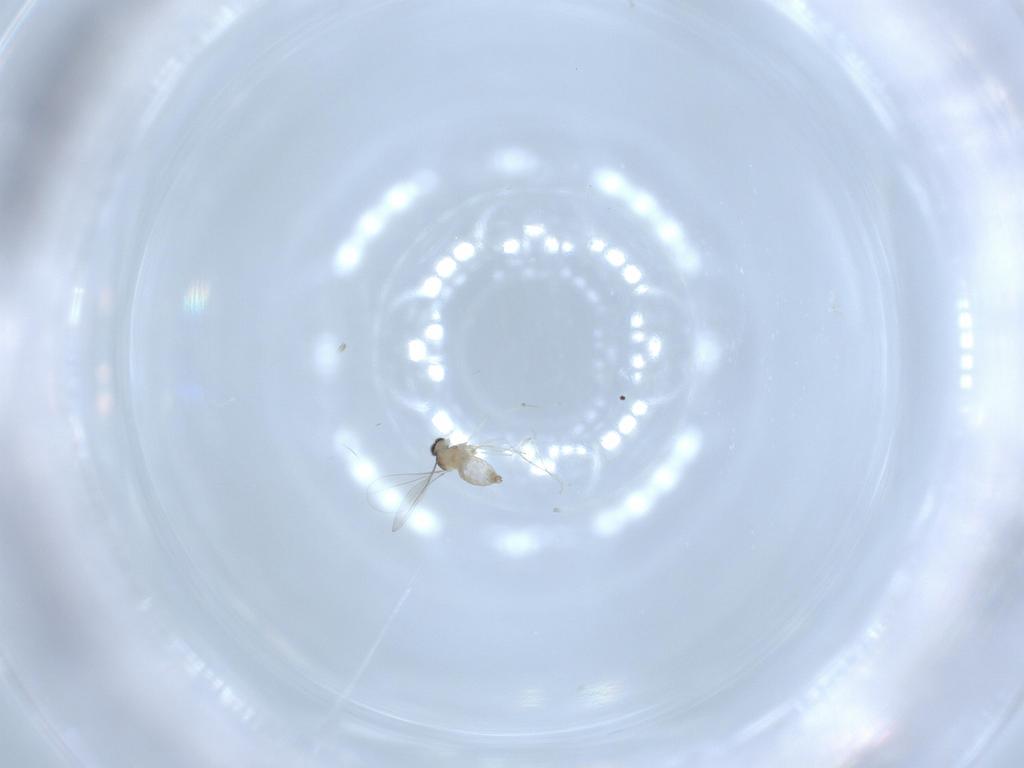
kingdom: Animalia
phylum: Arthropoda
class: Insecta
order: Diptera
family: Cecidomyiidae
